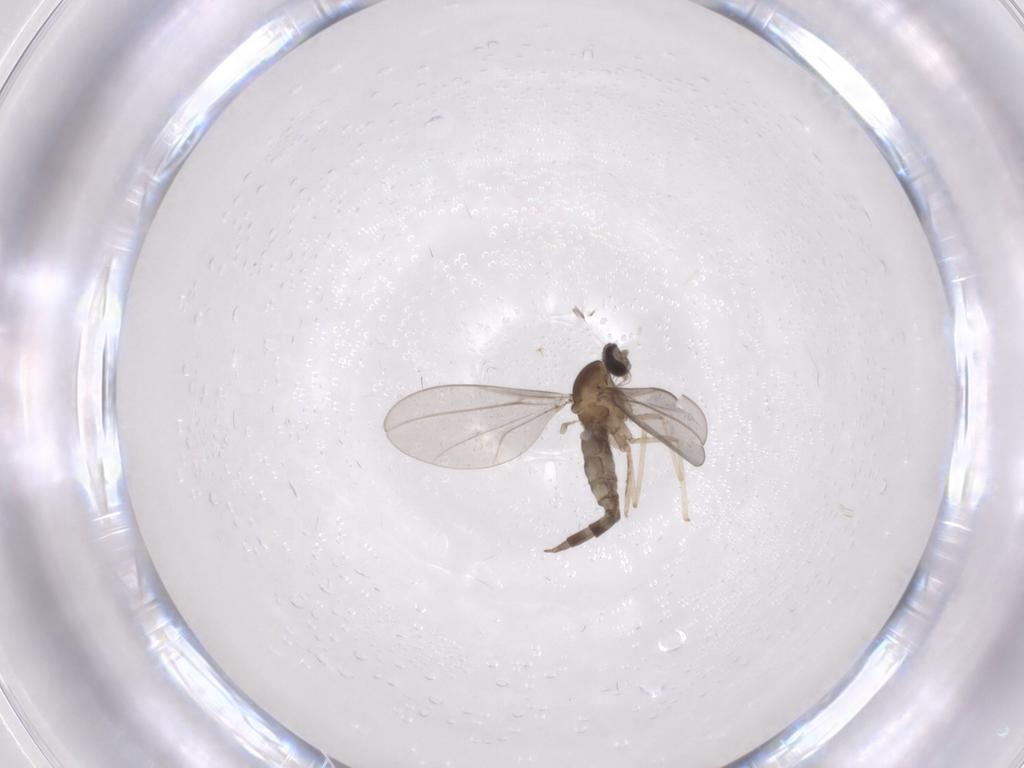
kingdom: Animalia
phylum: Arthropoda
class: Insecta
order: Diptera
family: Cecidomyiidae
